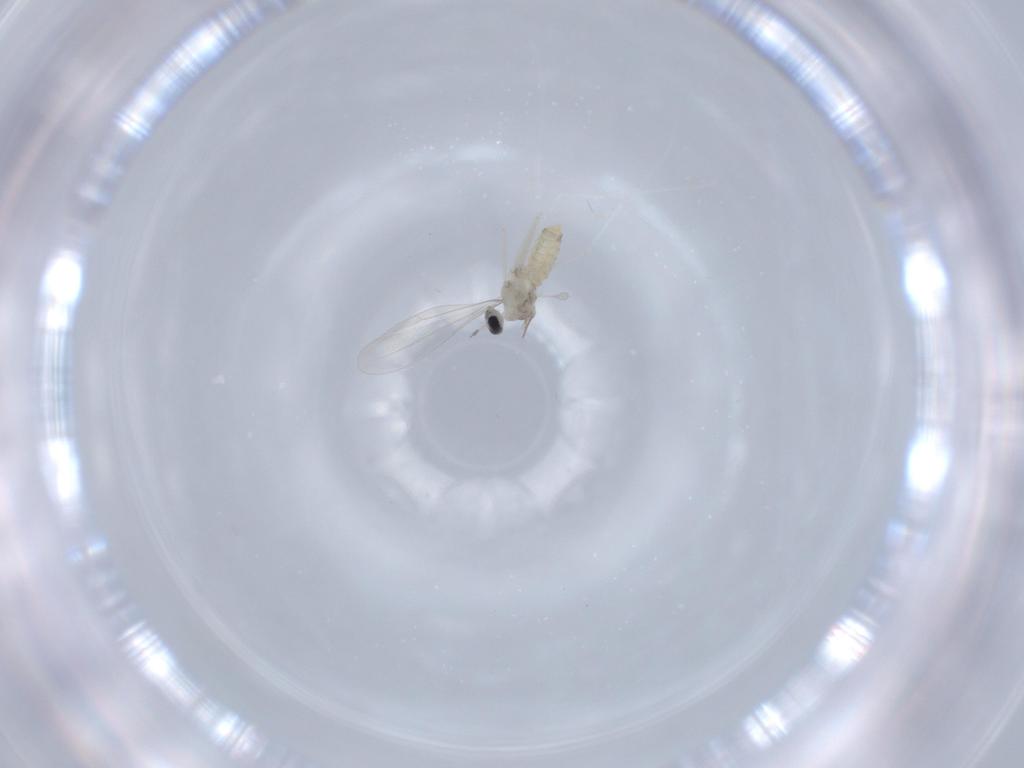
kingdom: Animalia
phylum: Arthropoda
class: Insecta
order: Diptera
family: Cecidomyiidae
